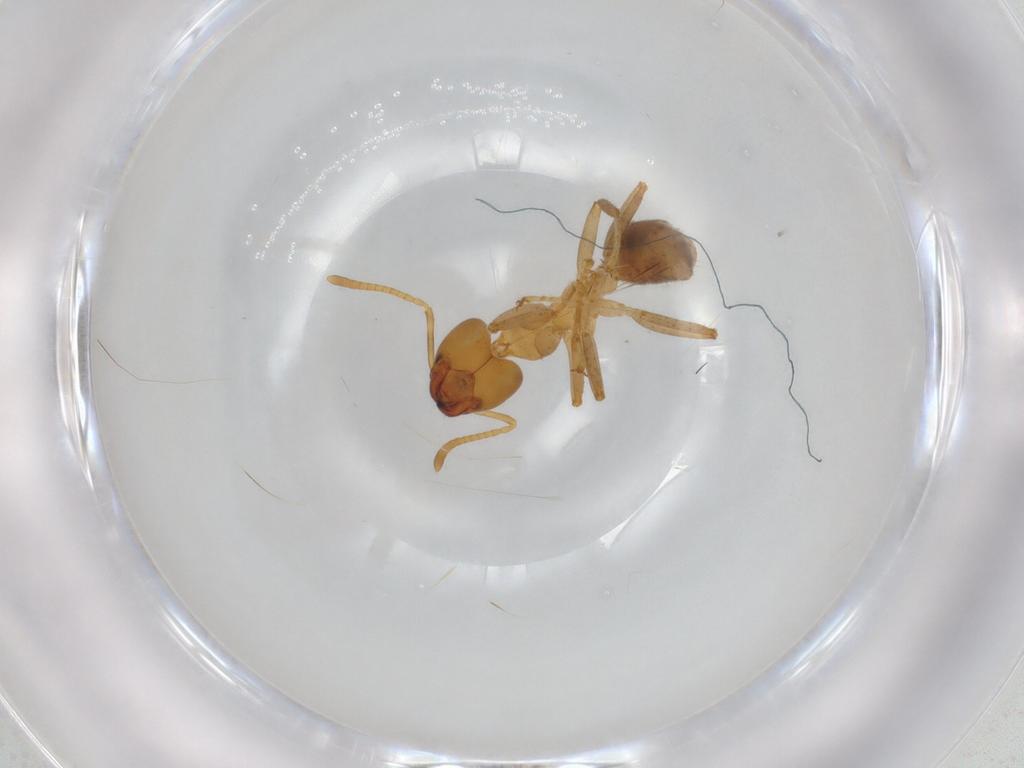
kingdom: Animalia
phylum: Arthropoda
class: Insecta
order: Hymenoptera
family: Formicidae
